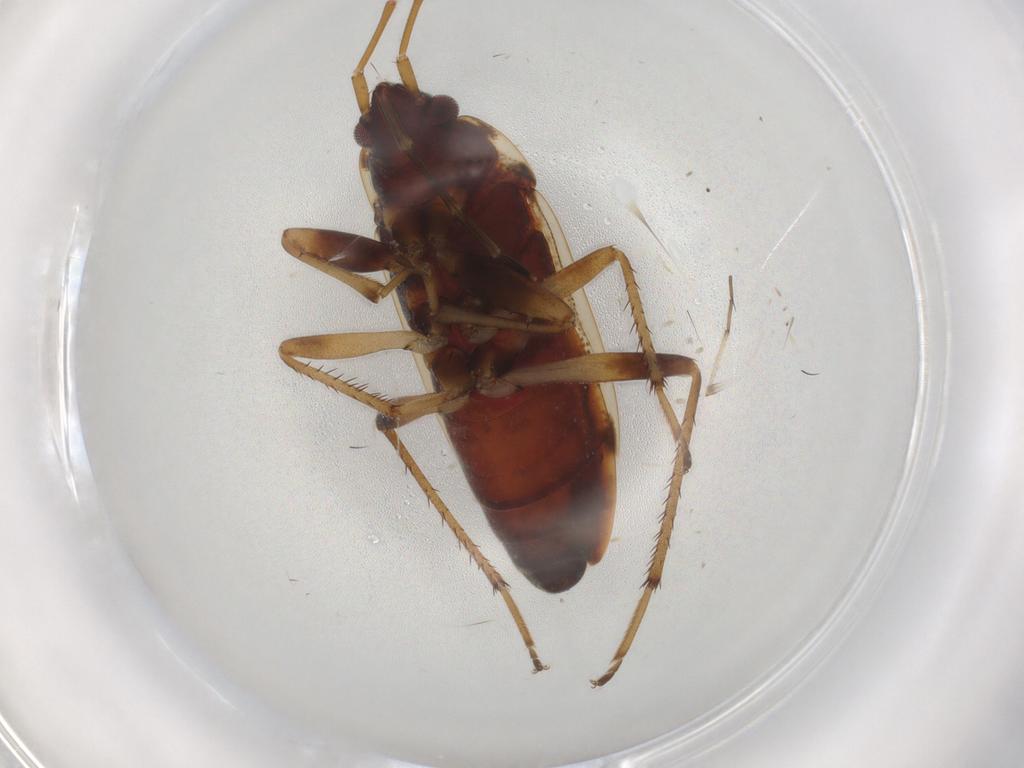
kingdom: Animalia
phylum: Arthropoda
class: Insecta
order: Hemiptera
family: Rhyparochromidae
